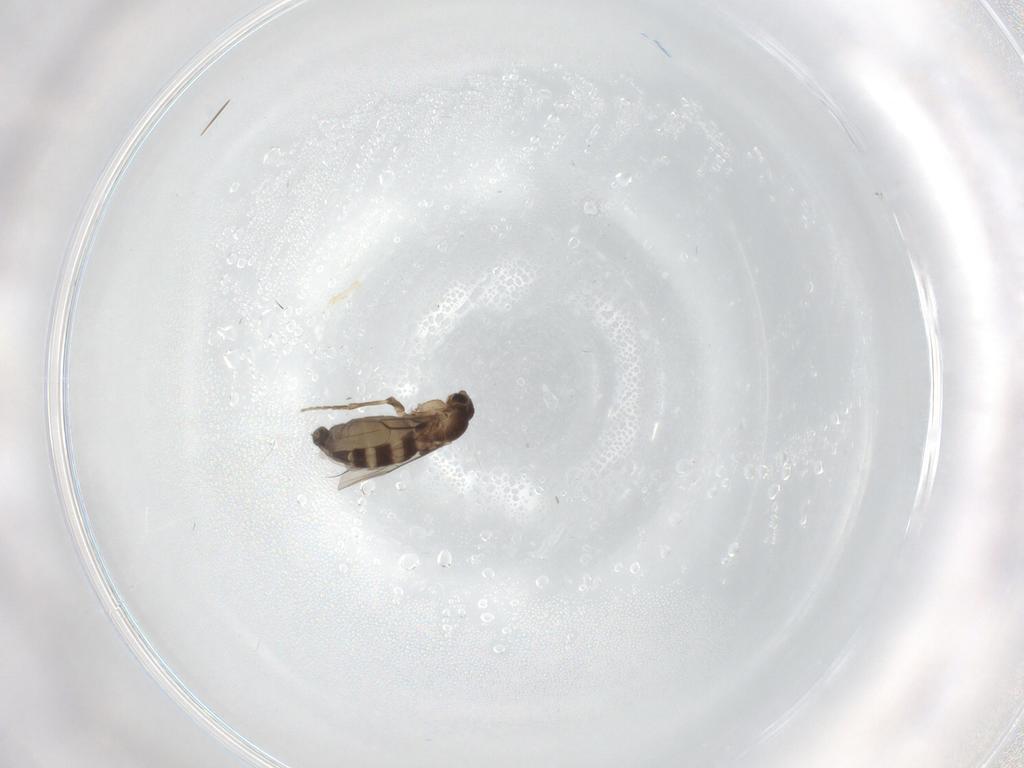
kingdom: Animalia
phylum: Arthropoda
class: Insecta
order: Diptera
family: Phoridae
